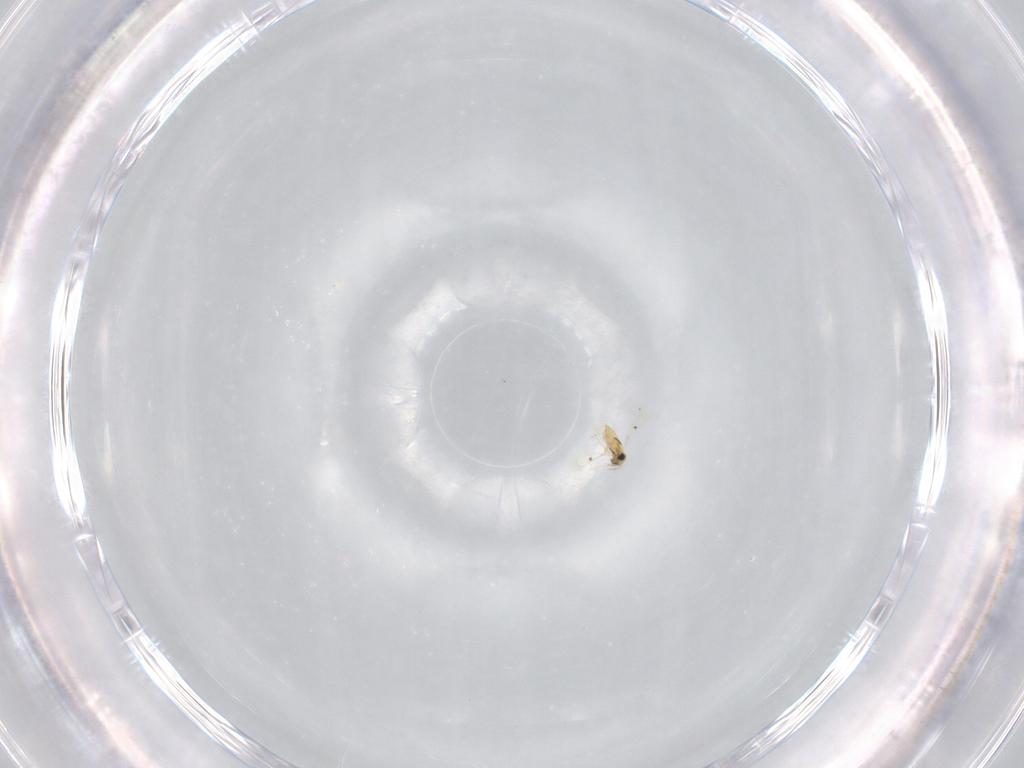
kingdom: Animalia
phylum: Arthropoda
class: Insecta
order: Hymenoptera
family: Trichogrammatidae
